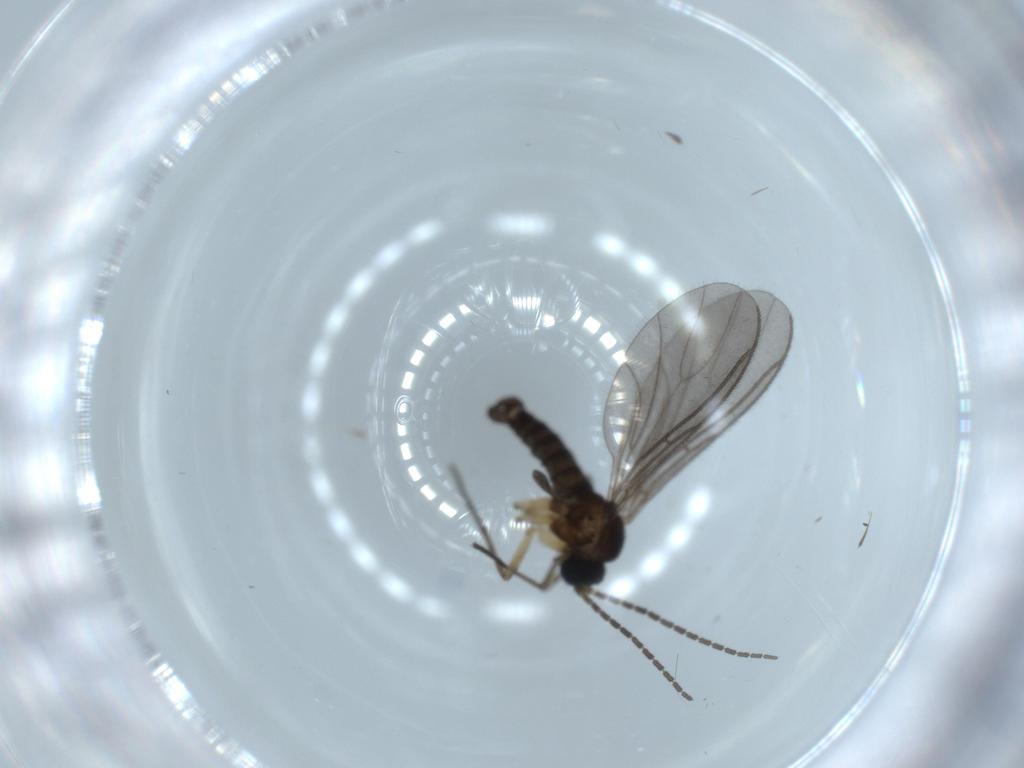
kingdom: Animalia
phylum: Arthropoda
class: Insecta
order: Diptera
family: Sciaridae
